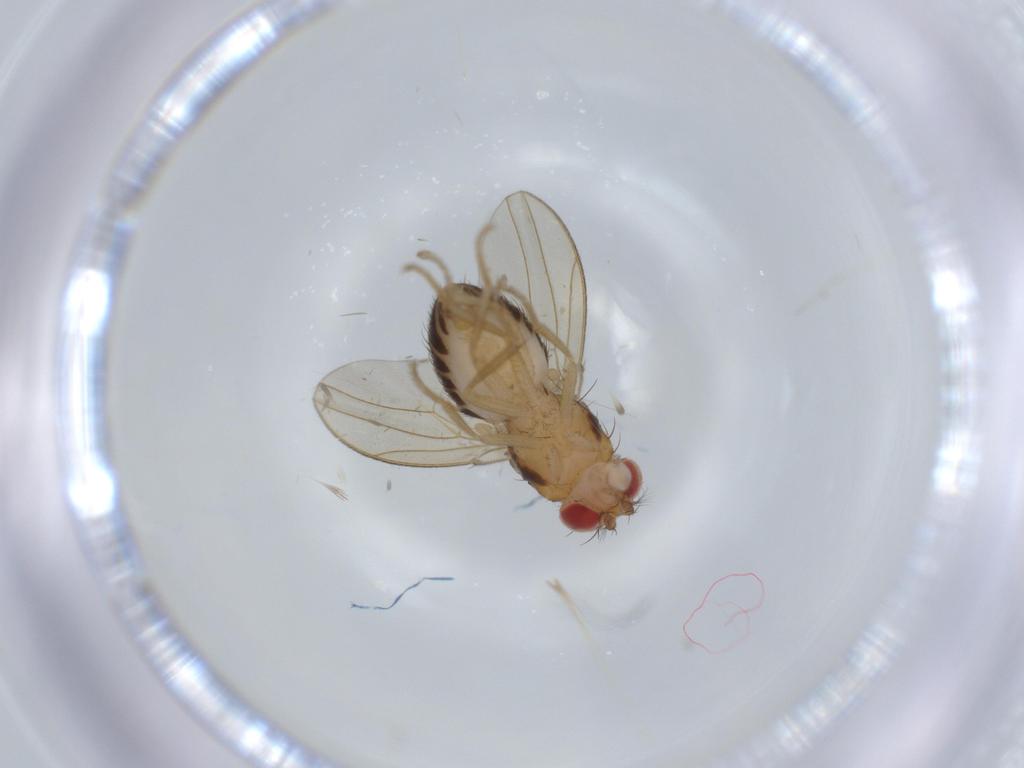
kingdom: Animalia
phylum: Arthropoda
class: Insecta
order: Diptera
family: Drosophilidae
